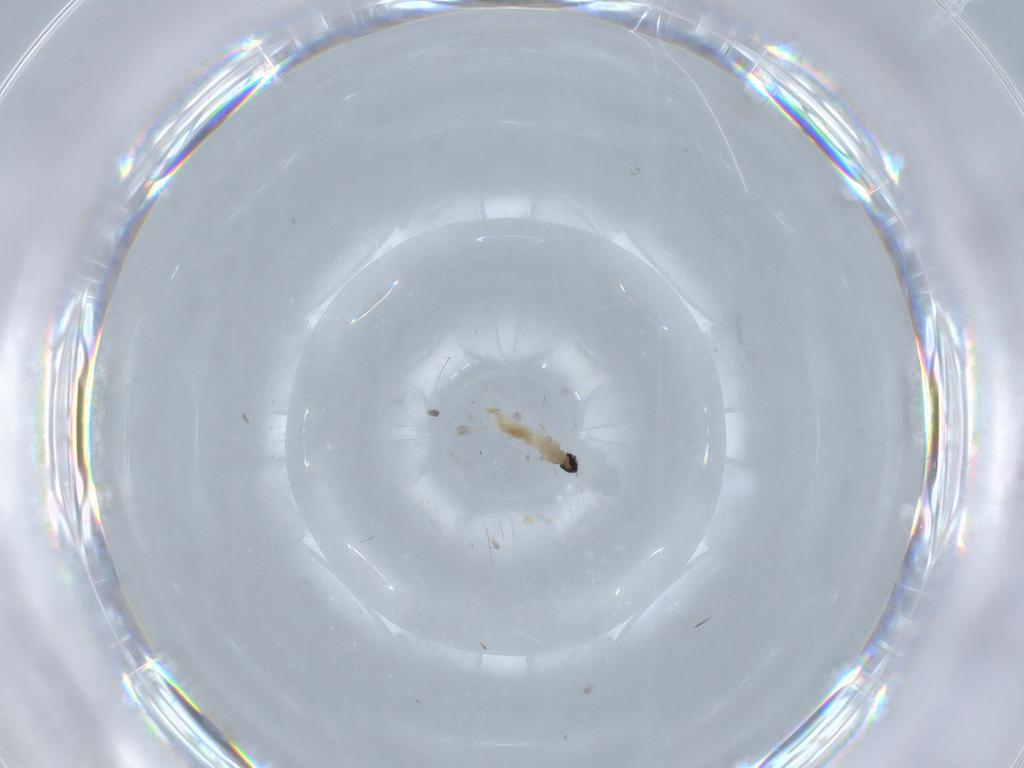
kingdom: Animalia
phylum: Arthropoda
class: Insecta
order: Diptera
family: Cecidomyiidae
